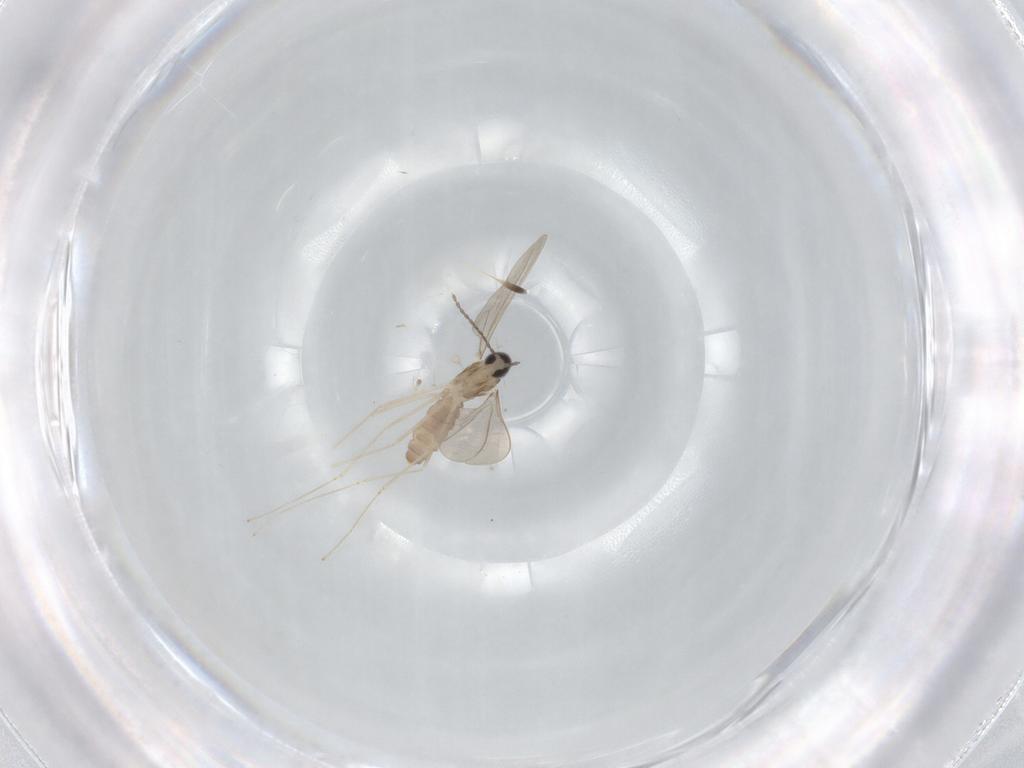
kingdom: Animalia
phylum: Arthropoda
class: Insecta
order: Diptera
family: Cecidomyiidae
